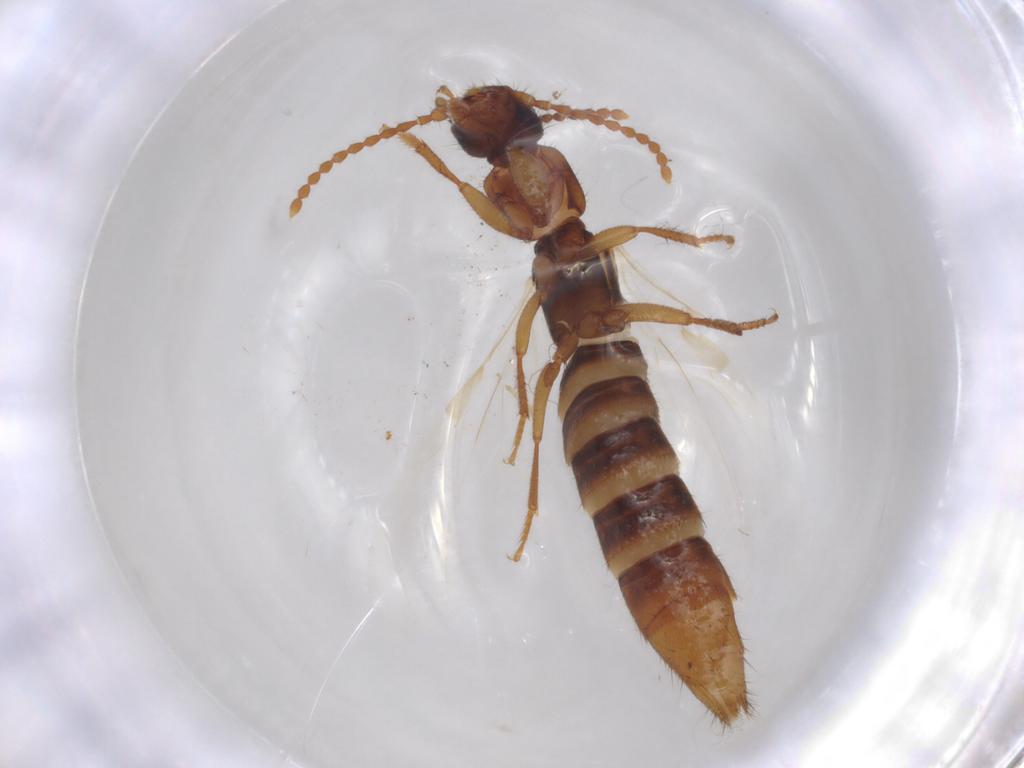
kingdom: Animalia
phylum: Arthropoda
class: Insecta
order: Coleoptera
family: Staphylinidae
